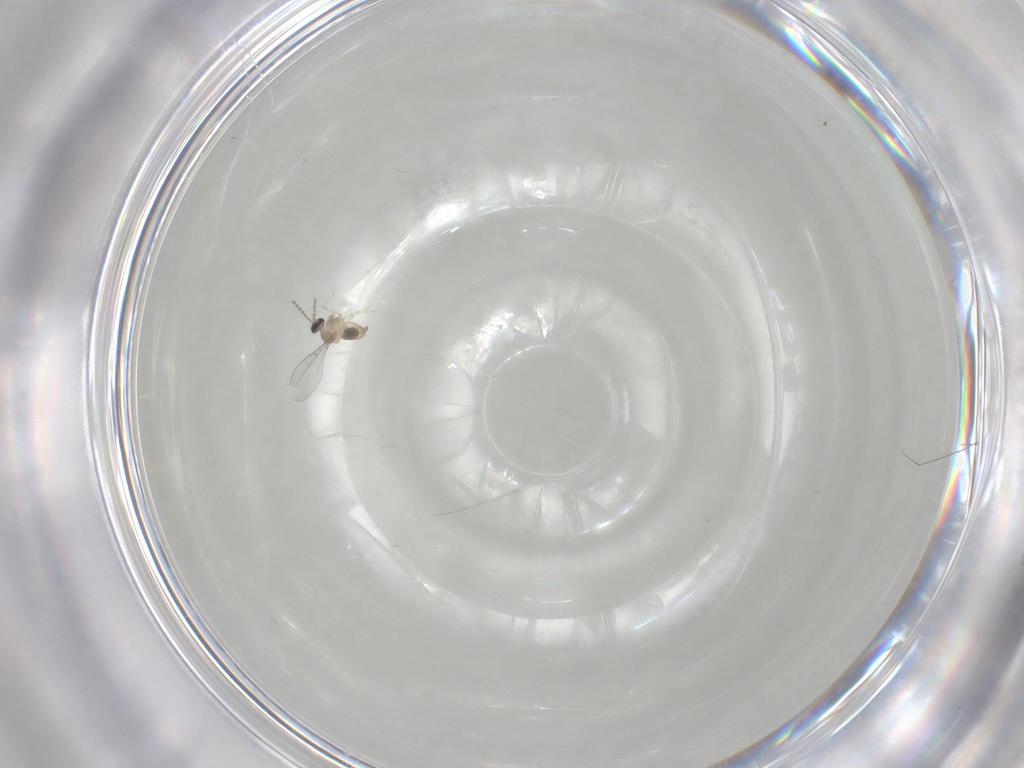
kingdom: Animalia
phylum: Arthropoda
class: Insecta
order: Diptera
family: Cecidomyiidae
